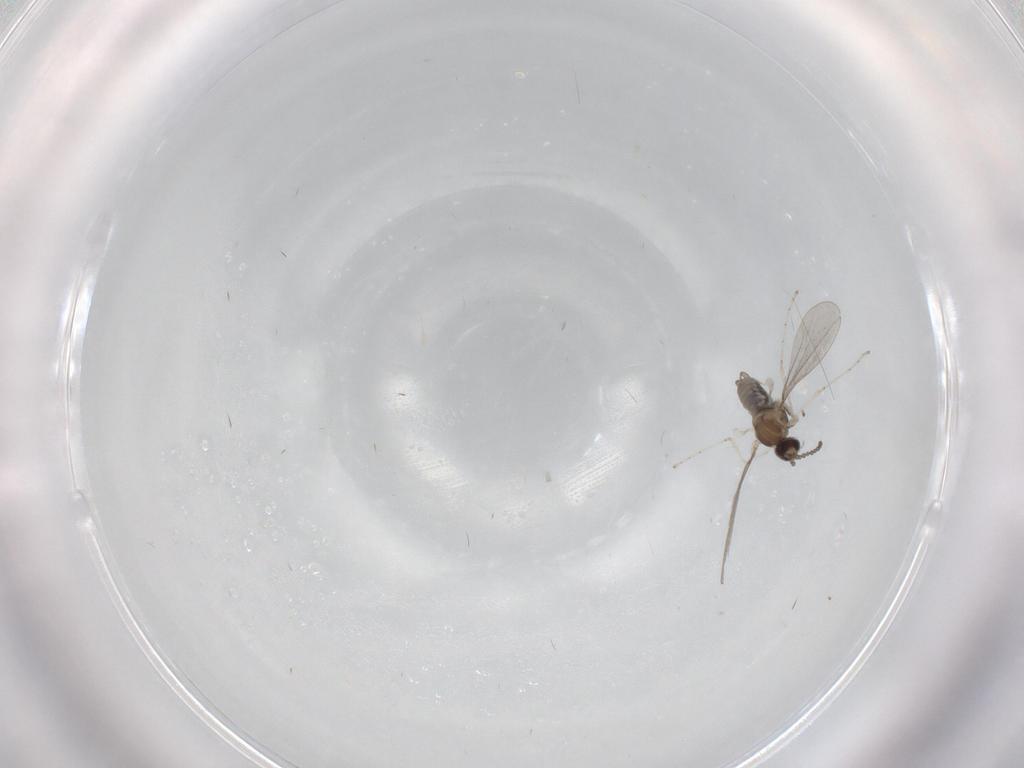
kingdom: Animalia
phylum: Arthropoda
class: Insecta
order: Diptera
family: Cecidomyiidae
